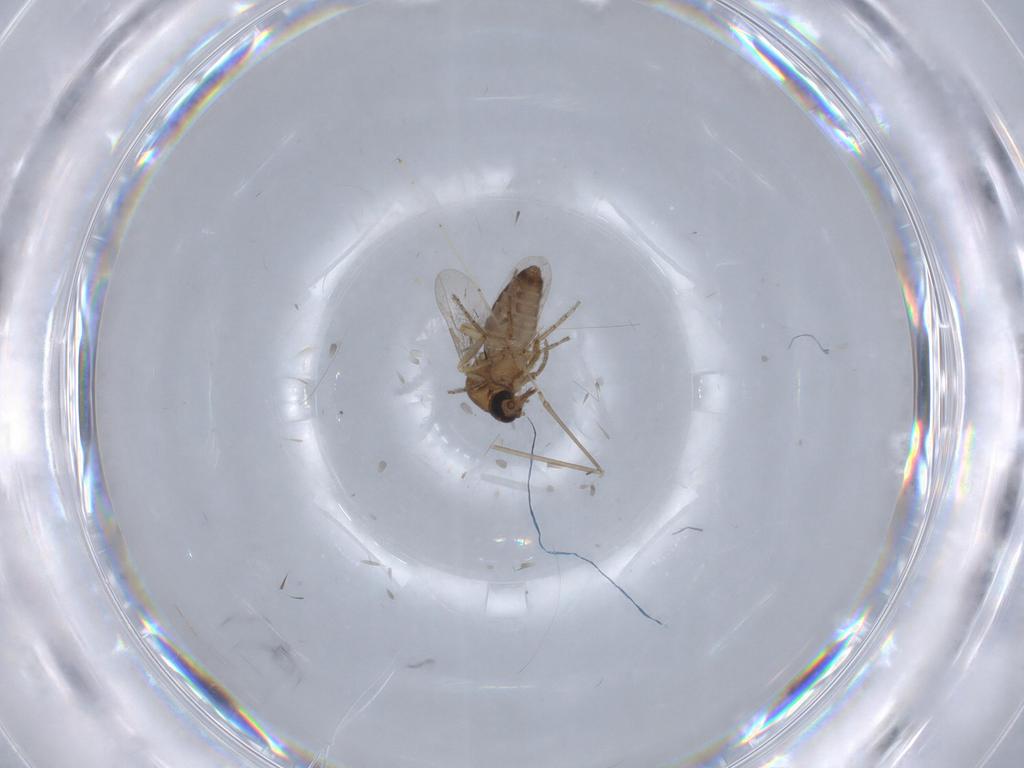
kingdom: Animalia
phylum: Arthropoda
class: Insecta
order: Diptera
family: Ceratopogonidae
